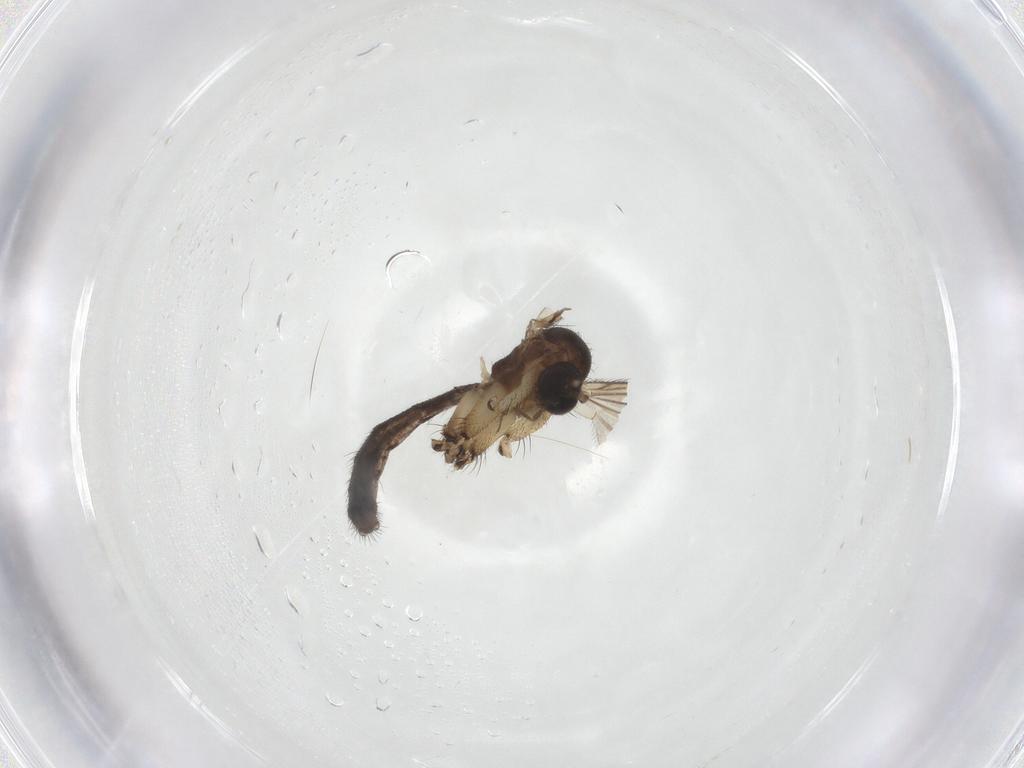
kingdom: Animalia
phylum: Arthropoda
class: Insecta
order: Diptera
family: Mycetophilidae
